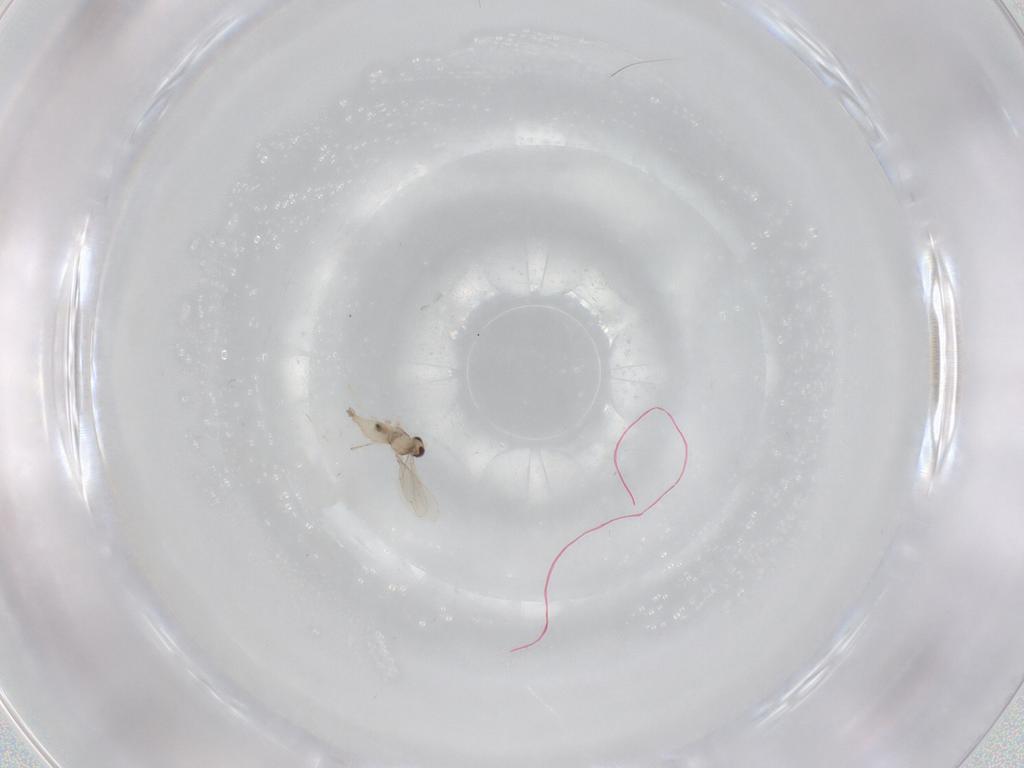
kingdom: Animalia
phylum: Arthropoda
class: Insecta
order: Diptera
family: Cecidomyiidae
